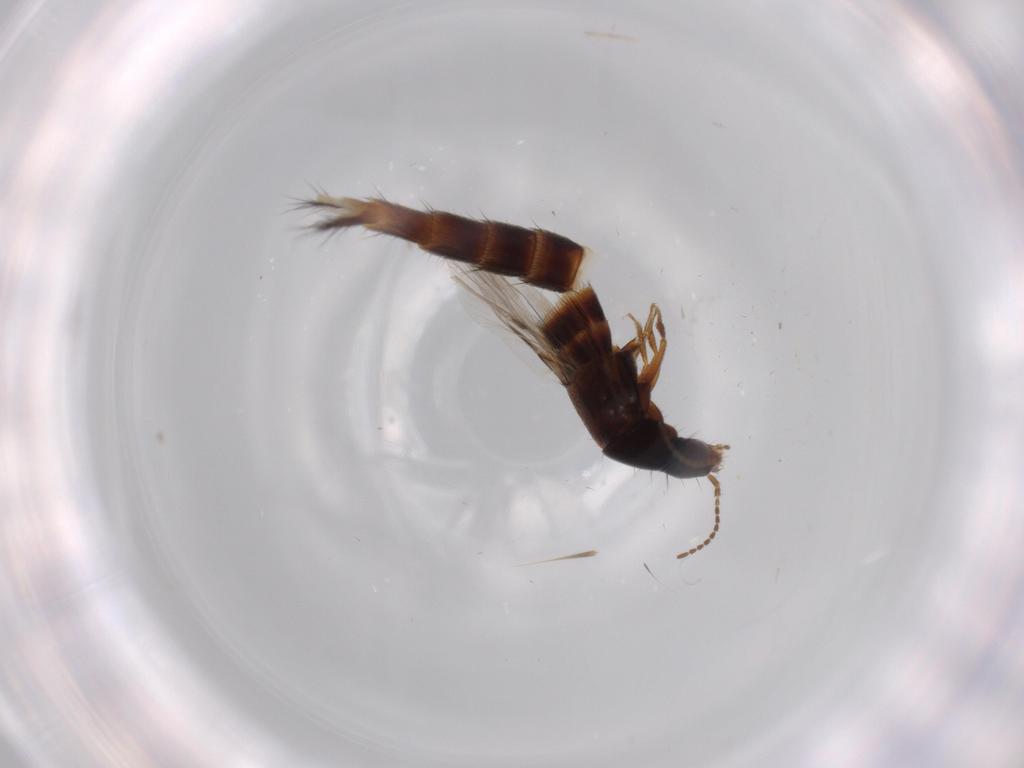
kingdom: Animalia
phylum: Arthropoda
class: Insecta
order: Coleoptera
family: Staphylinidae
